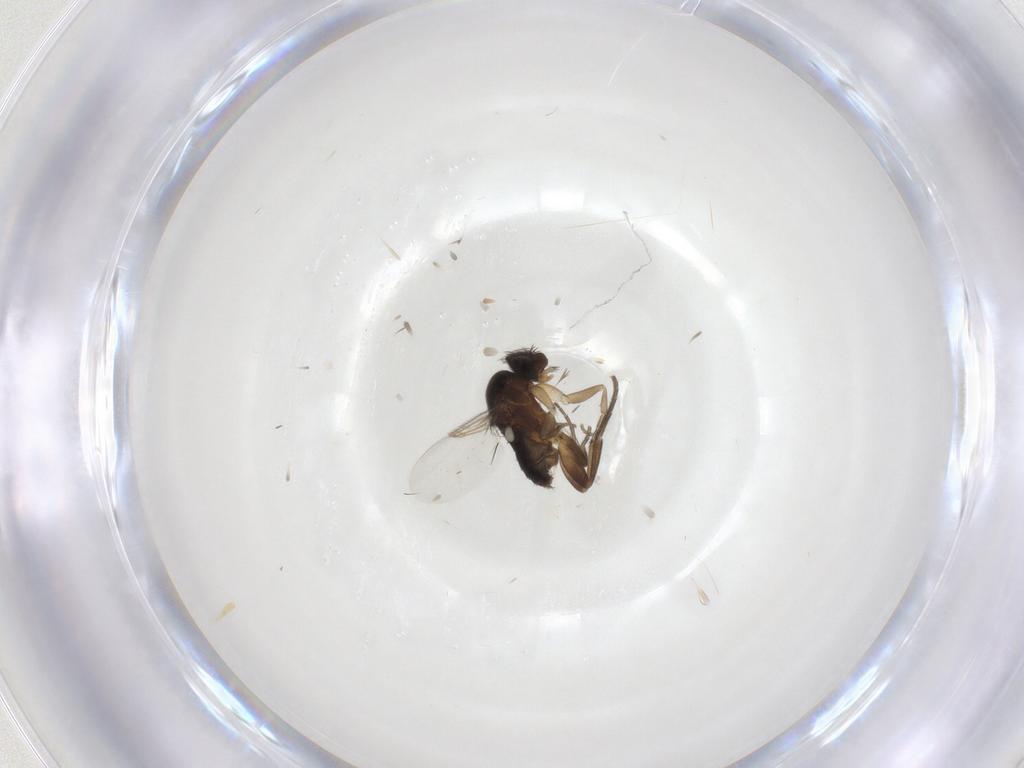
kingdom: Animalia
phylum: Arthropoda
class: Insecta
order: Diptera
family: Phoridae
